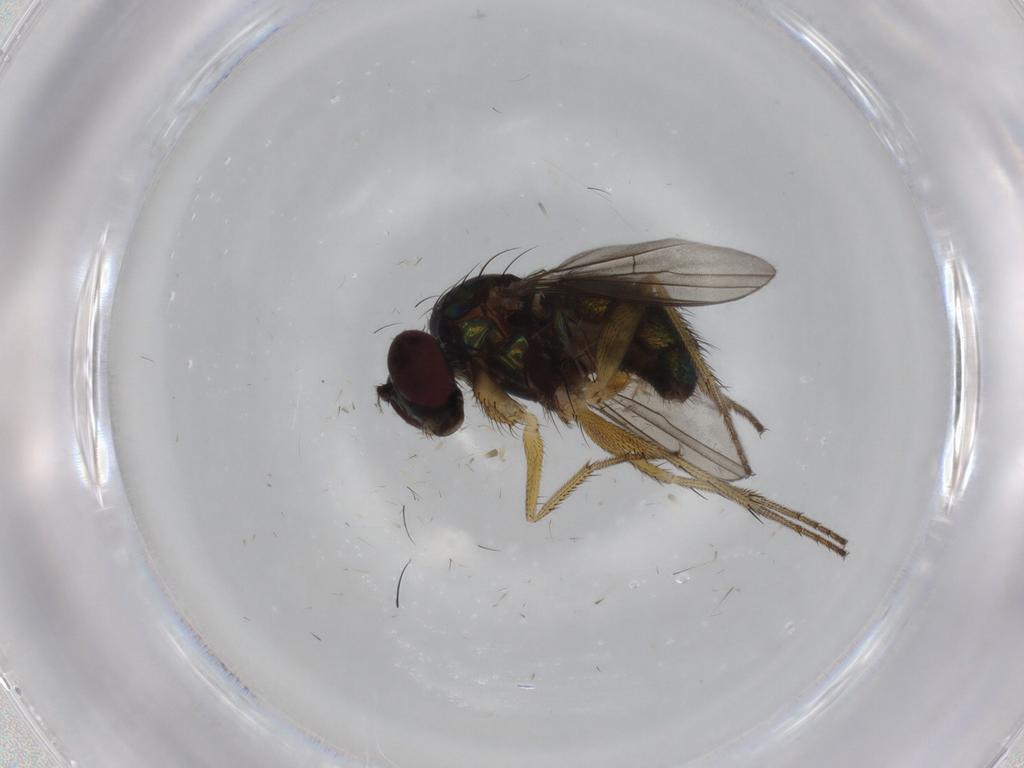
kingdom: Animalia
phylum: Arthropoda
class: Insecta
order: Diptera
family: Dolichopodidae
